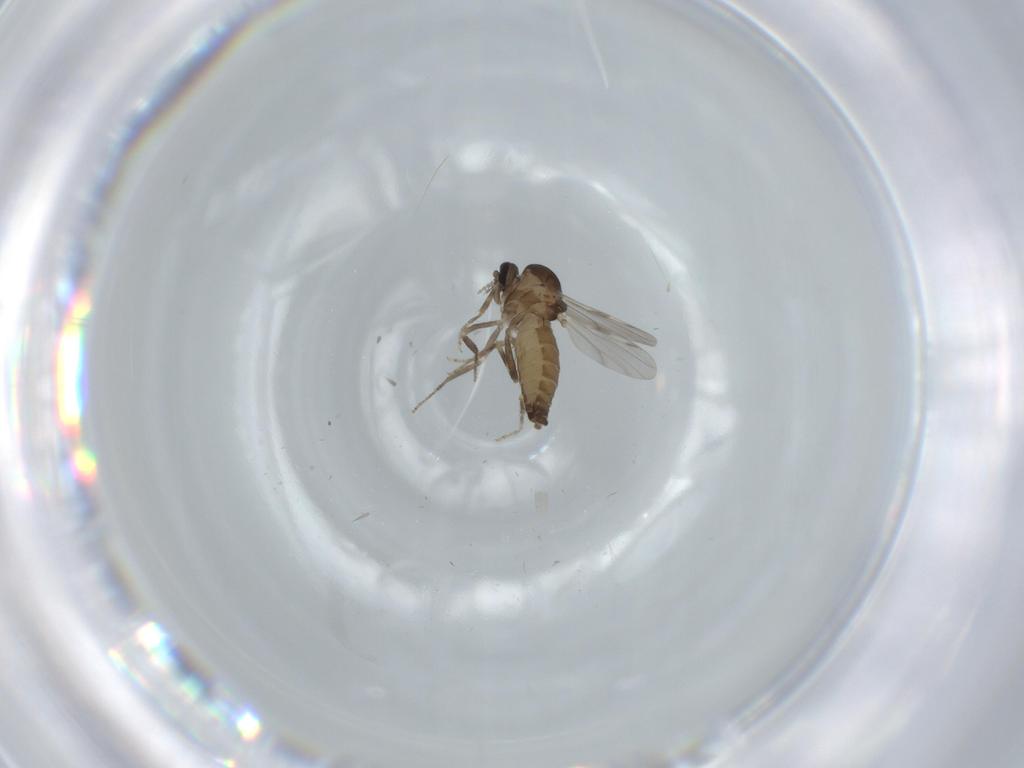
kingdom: Animalia
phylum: Arthropoda
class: Insecta
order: Diptera
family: Ceratopogonidae
